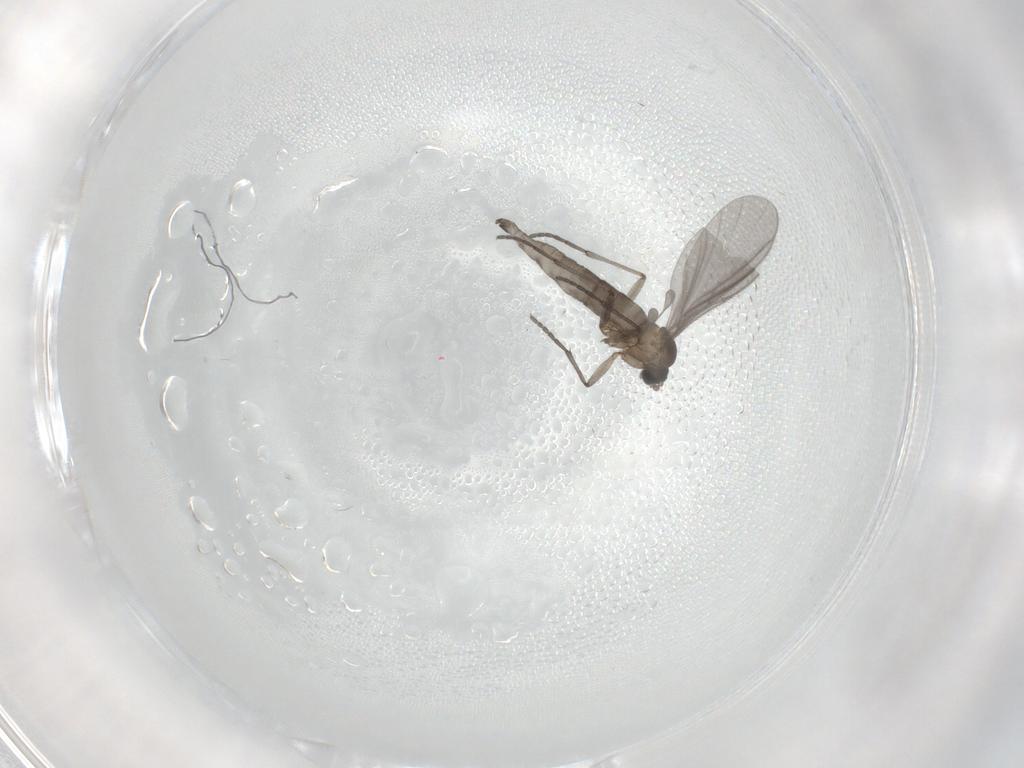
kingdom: Animalia
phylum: Arthropoda
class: Insecta
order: Diptera
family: Sciaridae
